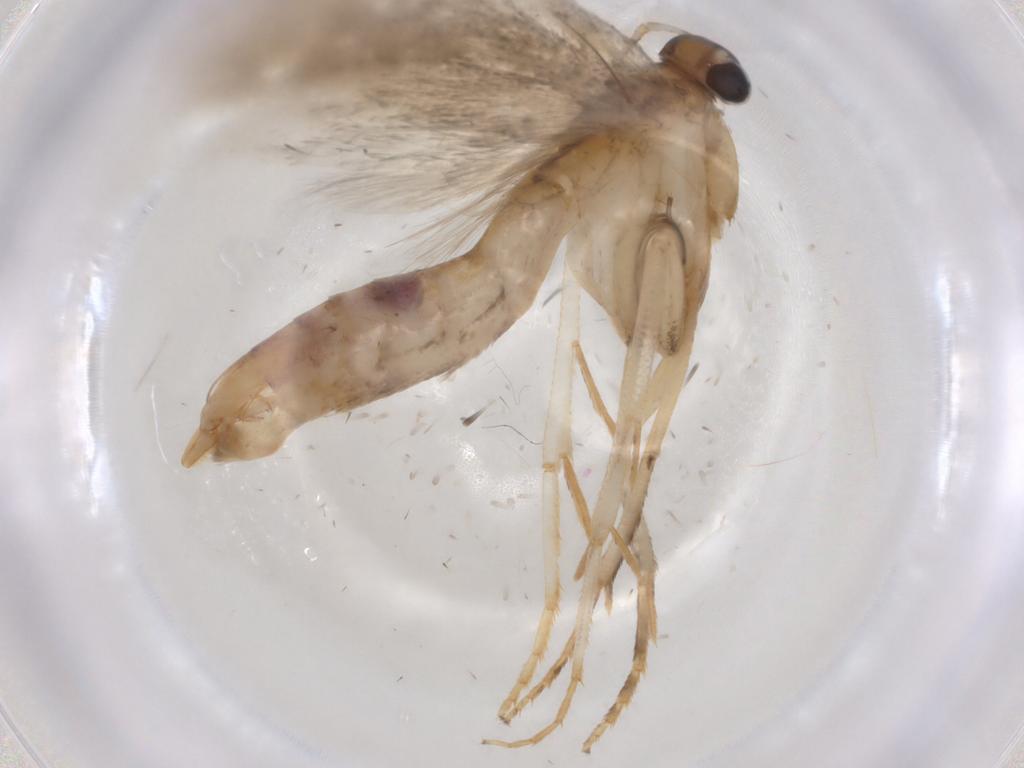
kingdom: Animalia
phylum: Arthropoda
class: Insecta
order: Lepidoptera
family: Gelechiidae
